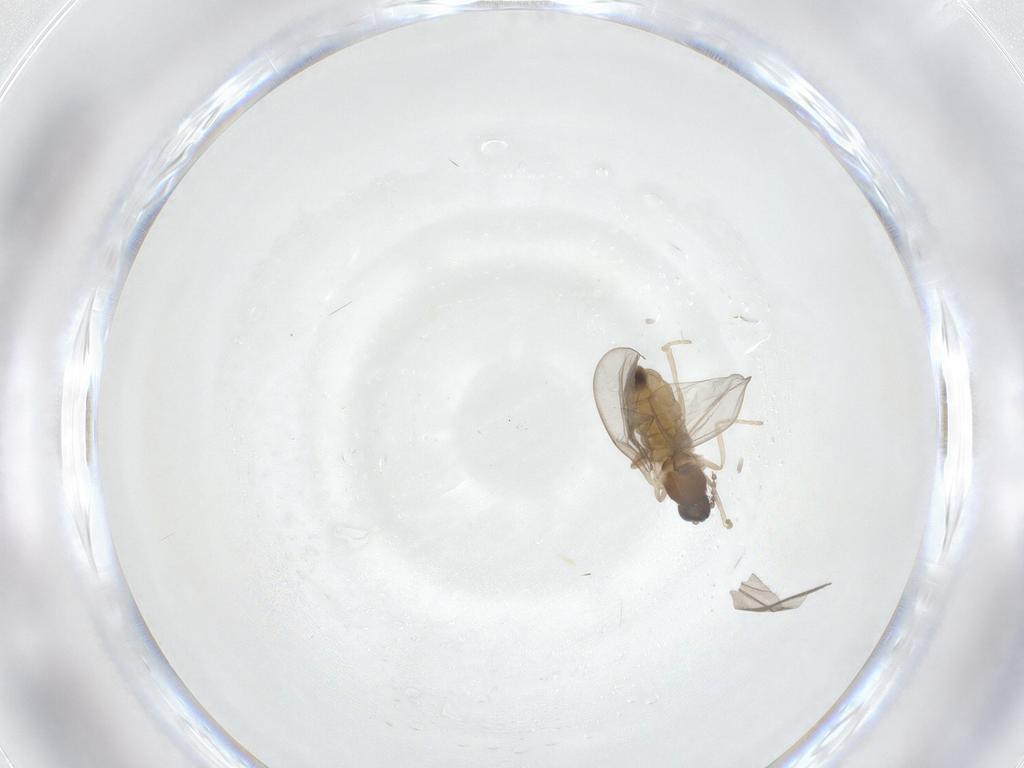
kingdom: Animalia
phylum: Arthropoda
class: Insecta
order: Diptera
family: Cecidomyiidae
